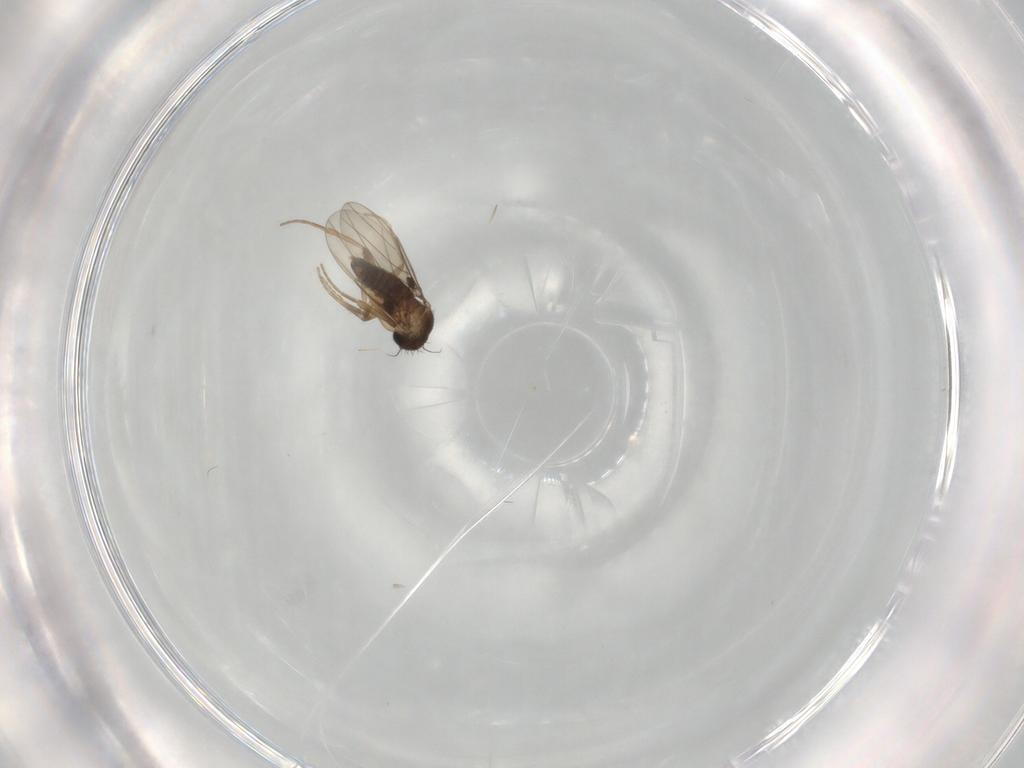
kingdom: Animalia
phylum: Arthropoda
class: Insecta
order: Diptera
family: Phoridae
